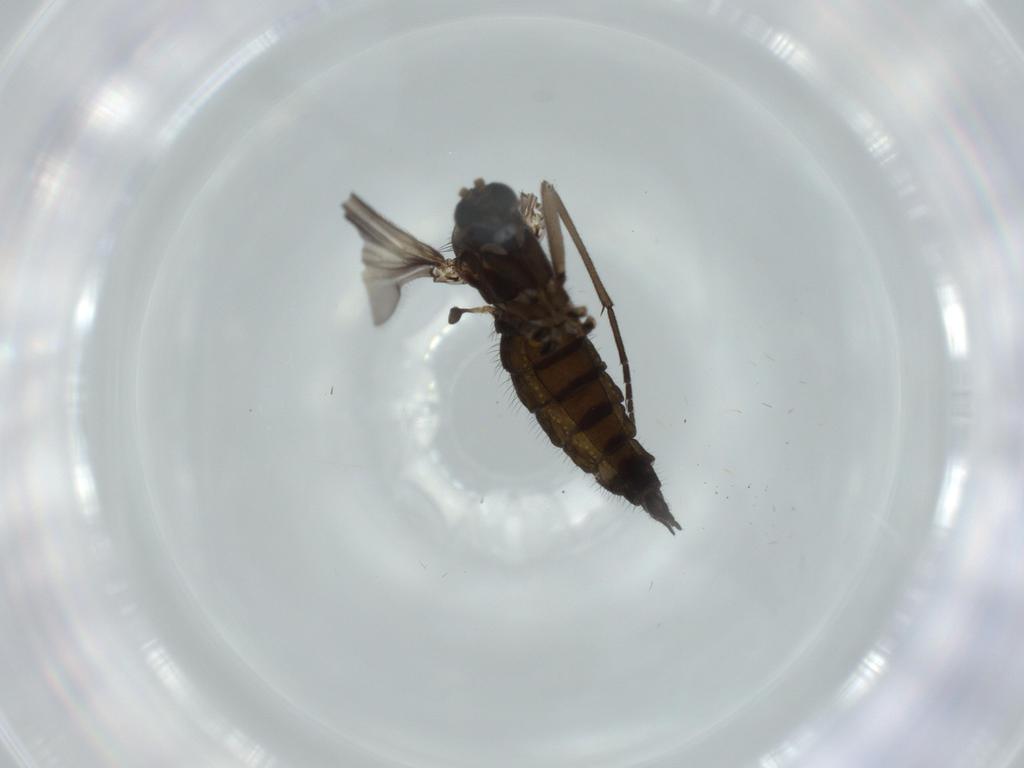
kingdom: Animalia
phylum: Arthropoda
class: Insecta
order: Diptera
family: Sciaridae
